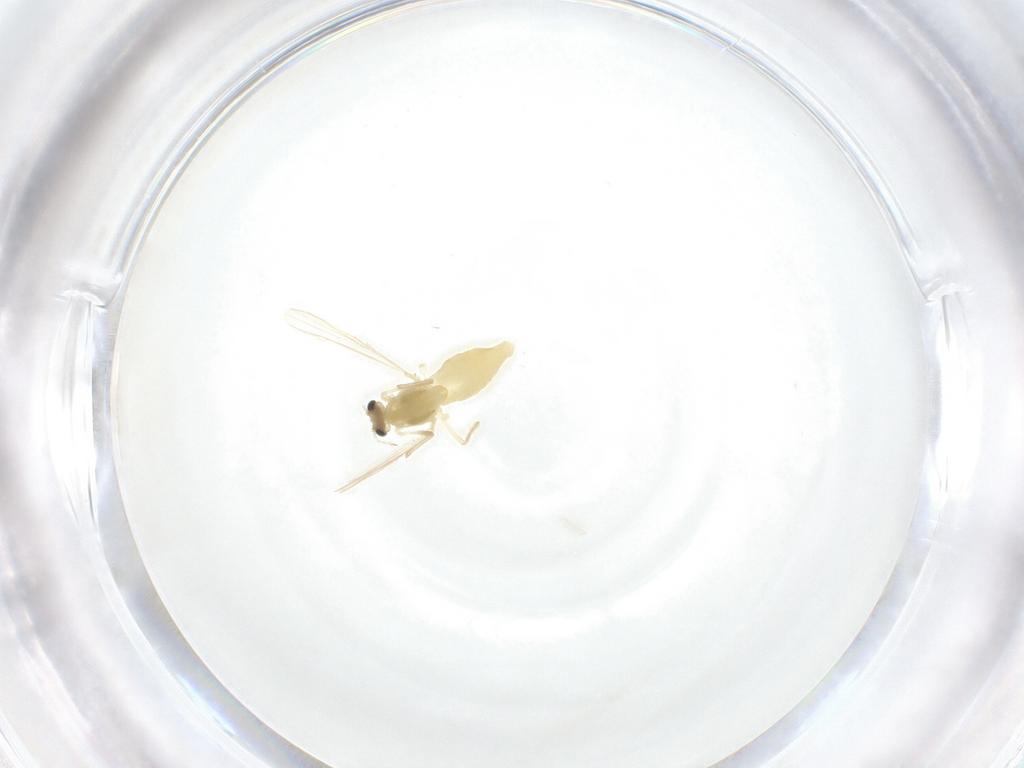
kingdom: Animalia
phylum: Arthropoda
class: Insecta
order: Diptera
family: Chironomidae
